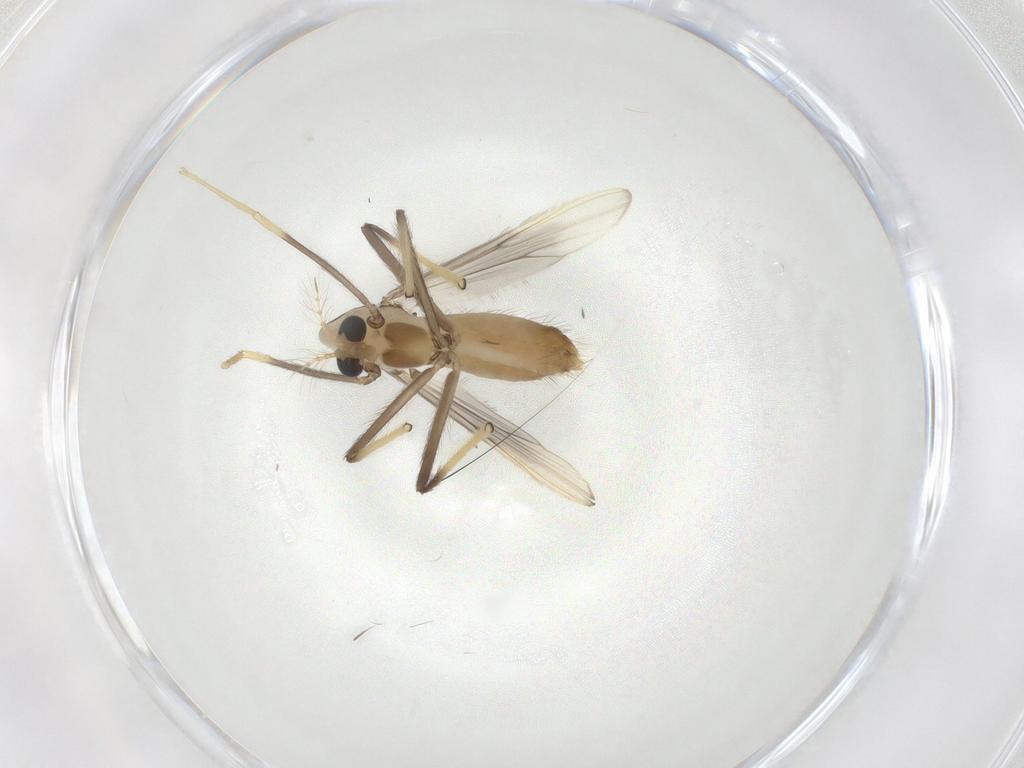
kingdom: Animalia
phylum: Arthropoda
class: Insecta
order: Diptera
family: Chironomidae
